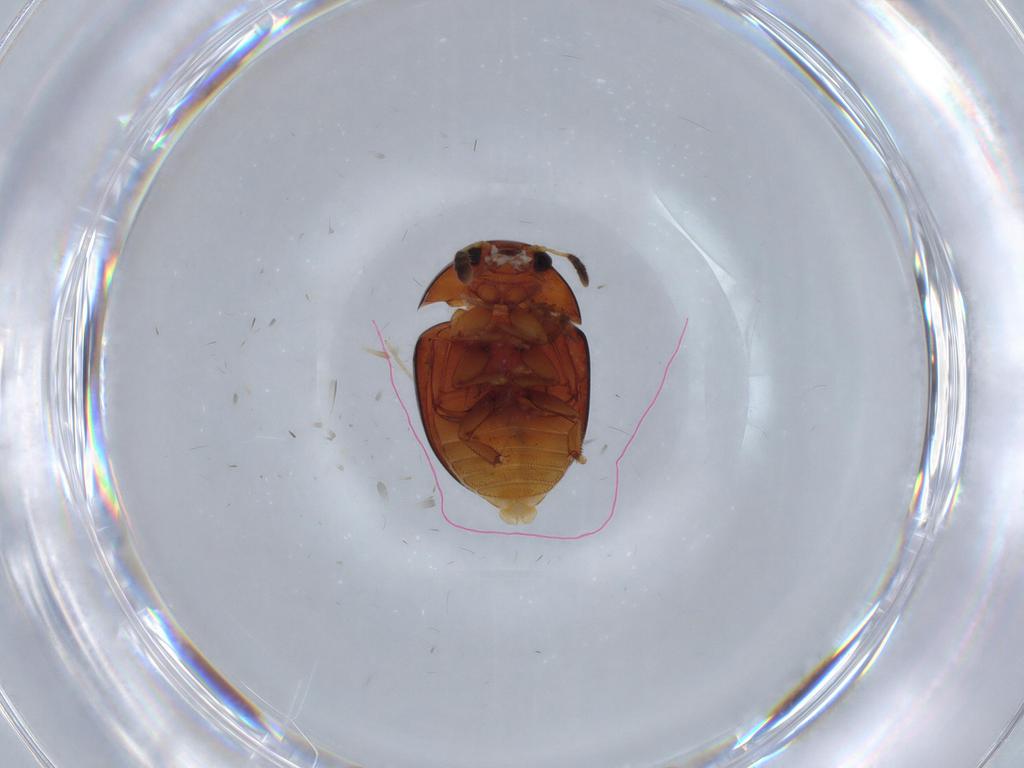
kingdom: Animalia
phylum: Arthropoda
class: Insecta
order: Coleoptera
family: Phalacridae
